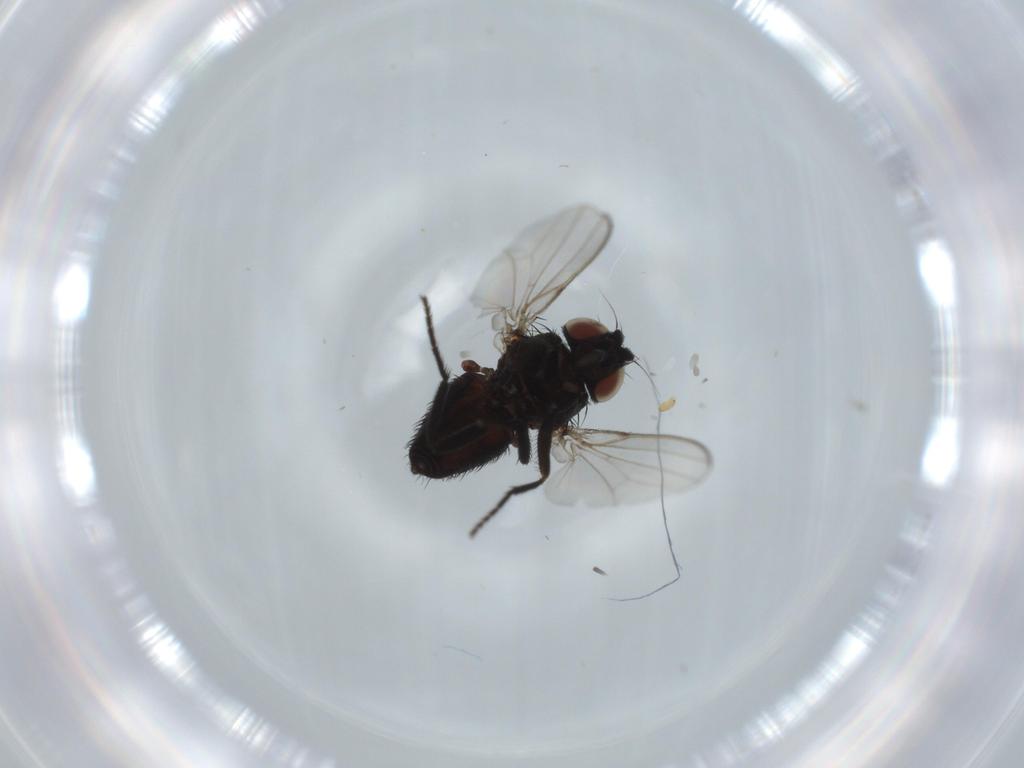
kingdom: Animalia
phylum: Arthropoda
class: Insecta
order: Diptera
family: Milichiidae
